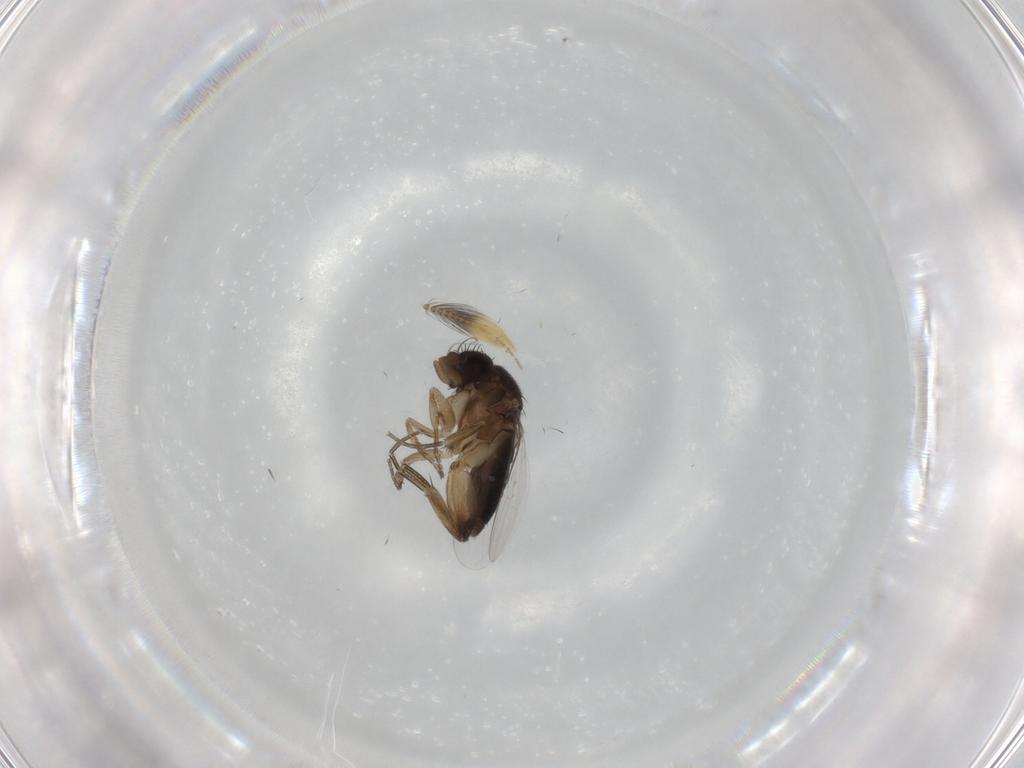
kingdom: Animalia
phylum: Arthropoda
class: Insecta
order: Diptera
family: Phoridae
